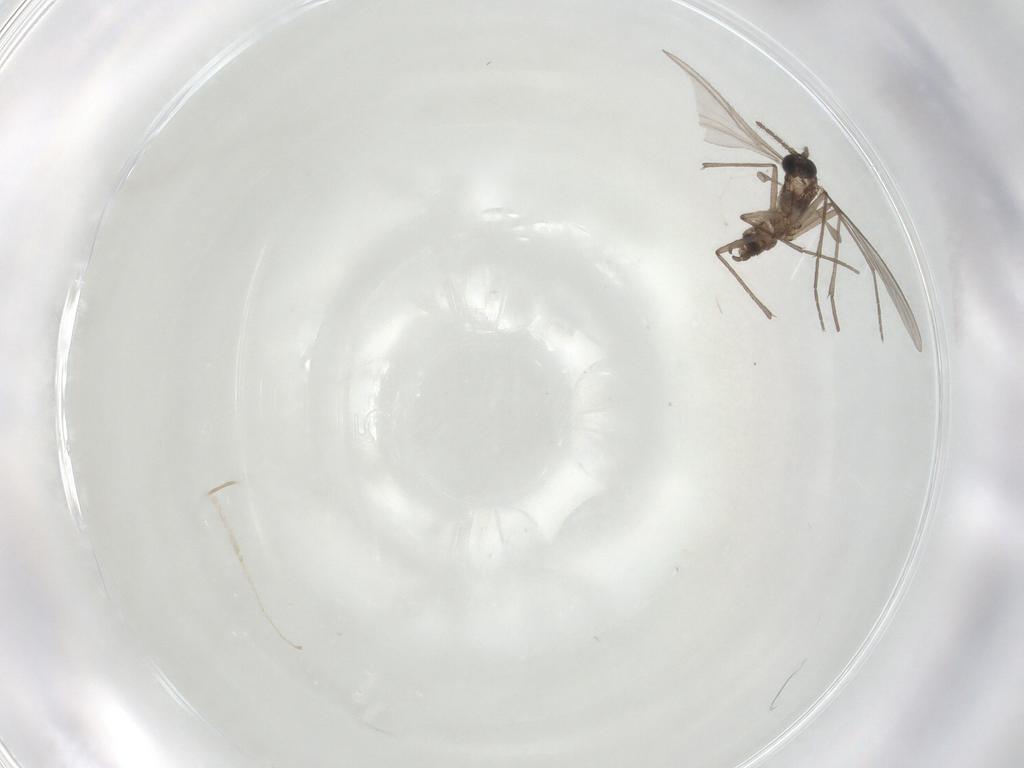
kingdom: Animalia
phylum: Arthropoda
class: Insecta
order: Diptera
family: Cecidomyiidae
